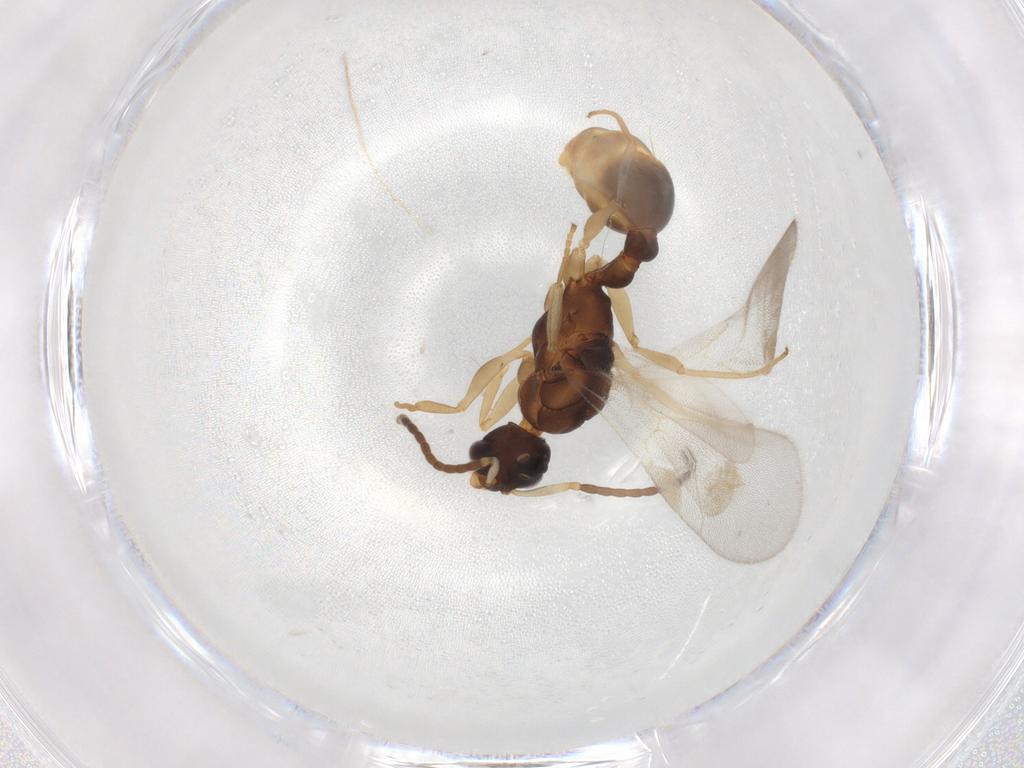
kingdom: Animalia
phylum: Arthropoda
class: Insecta
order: Hymenoptera
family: Formicidae
